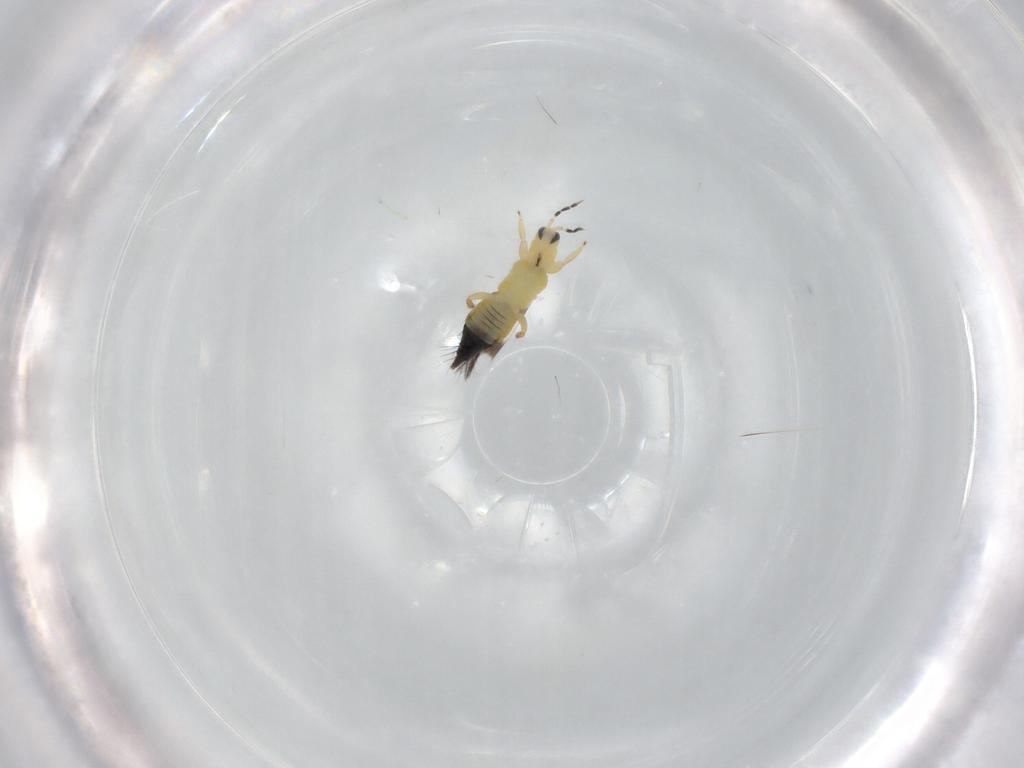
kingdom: Animalia
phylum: Arthropoda
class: Insecta
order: Thysanoptera
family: Aeolothripidae
